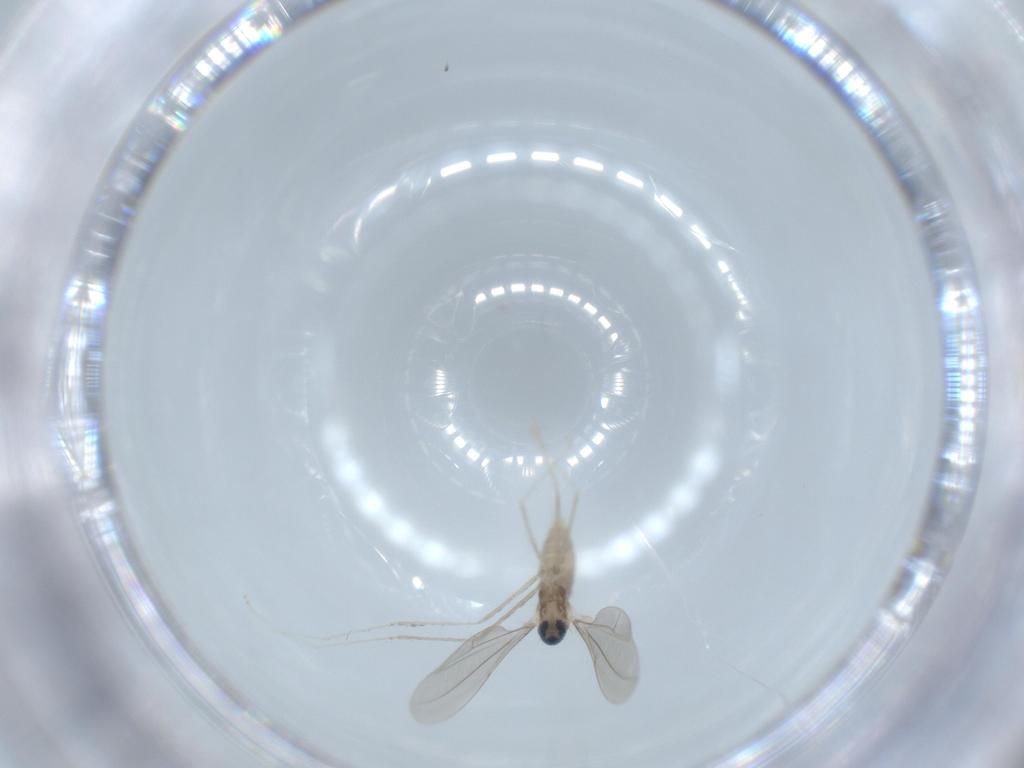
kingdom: Animalia
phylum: Arthropoda
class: Insecta
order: Diptera
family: Cecidomyiidae
